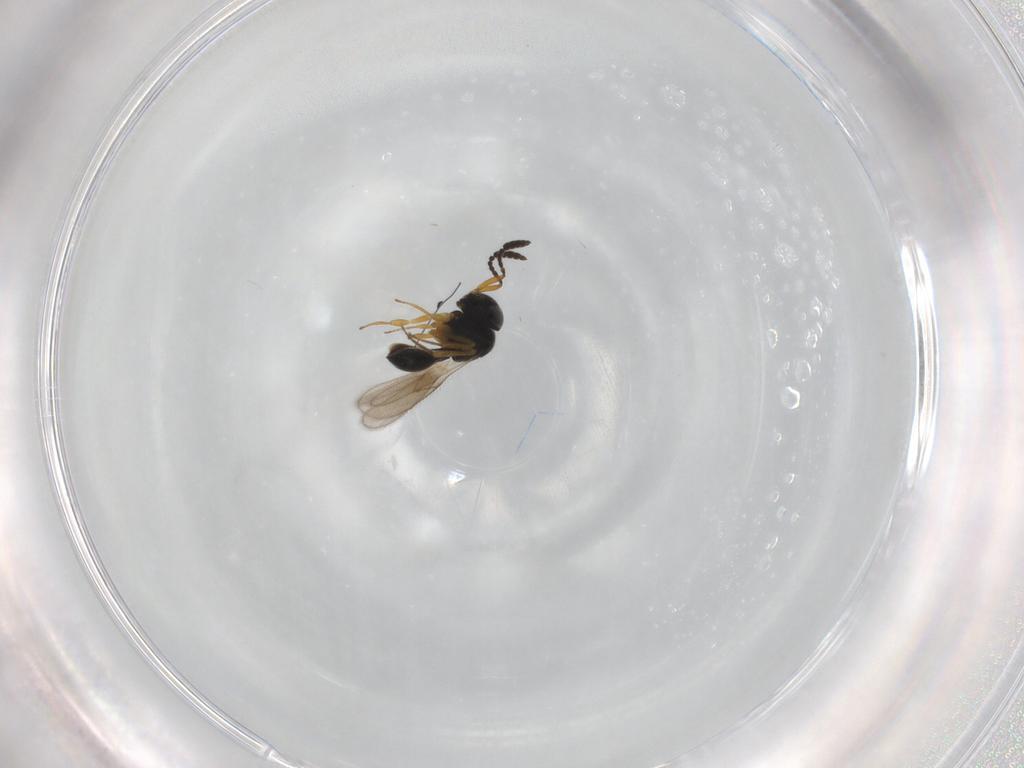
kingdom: Animalia
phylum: Arthropoda
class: Insecta
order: Hymenoptera
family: Scelionidae
